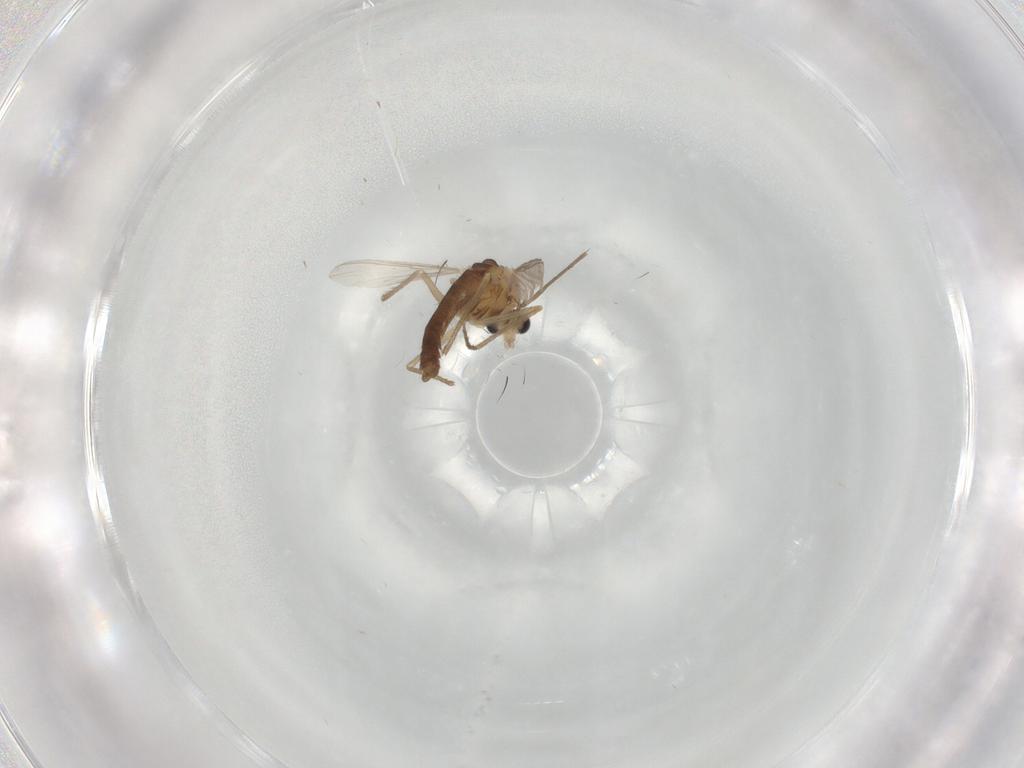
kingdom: Animalia
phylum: Arthropoda
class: Insecta
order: Diptera
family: Chironomidae
